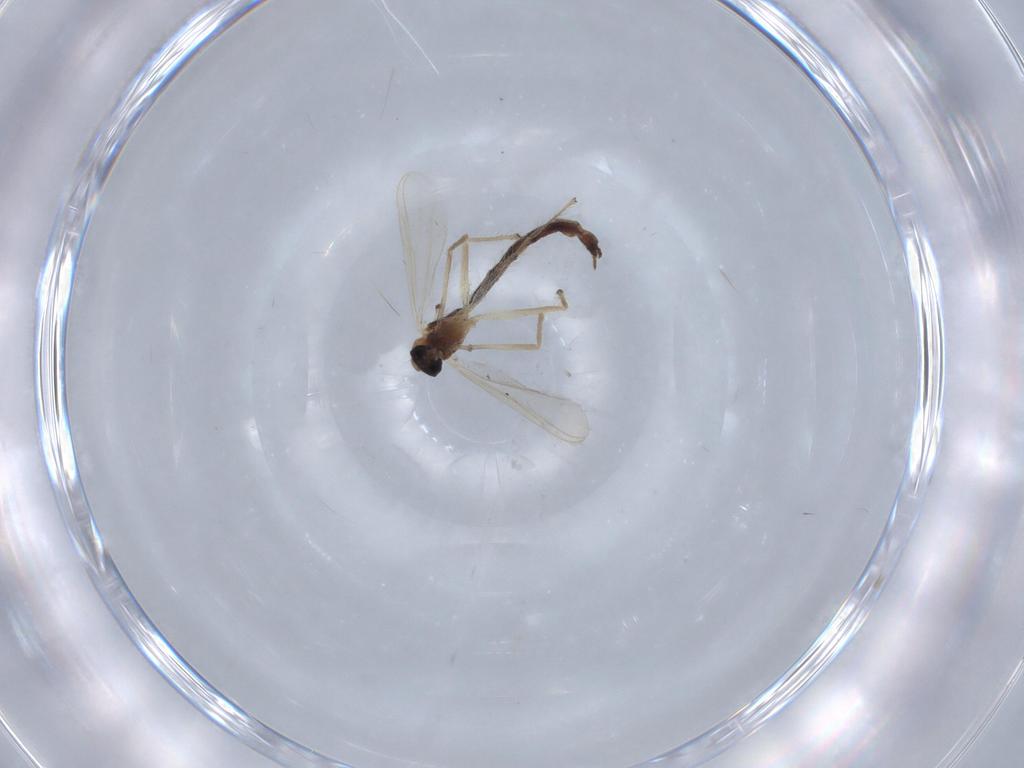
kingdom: Animalia
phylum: Arthropoda
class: Insecta
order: Diptera
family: Chironomidae
